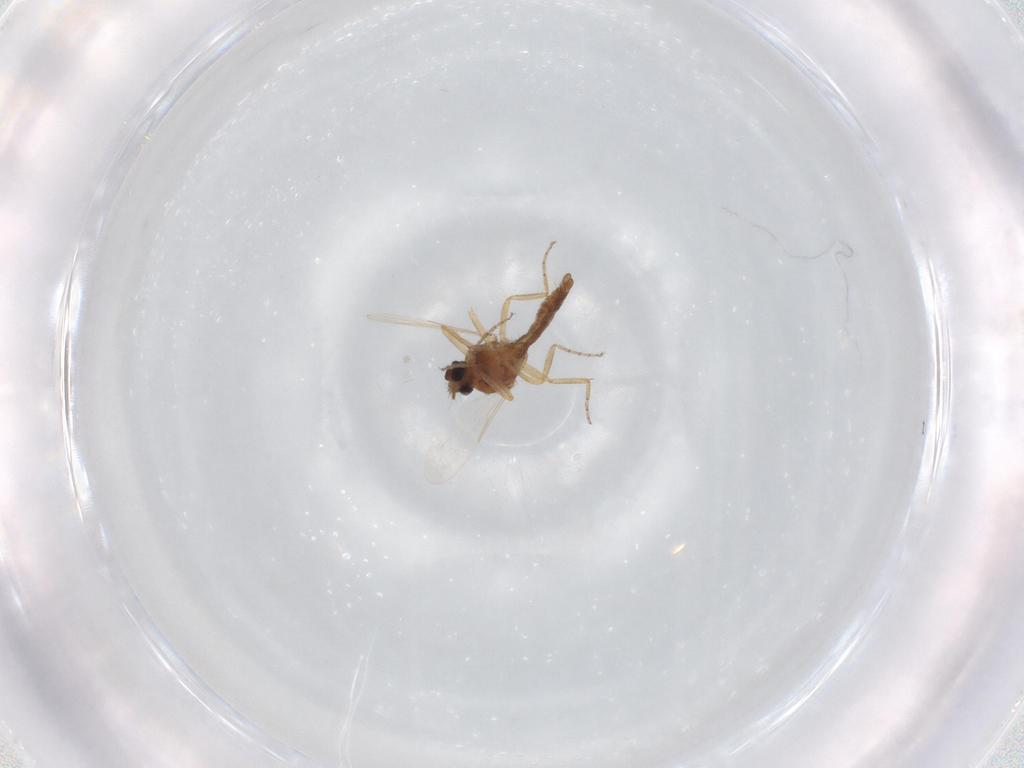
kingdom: Animalia
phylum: Arthropoda
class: Insecta
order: Diptera
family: Ceratopogonidae
